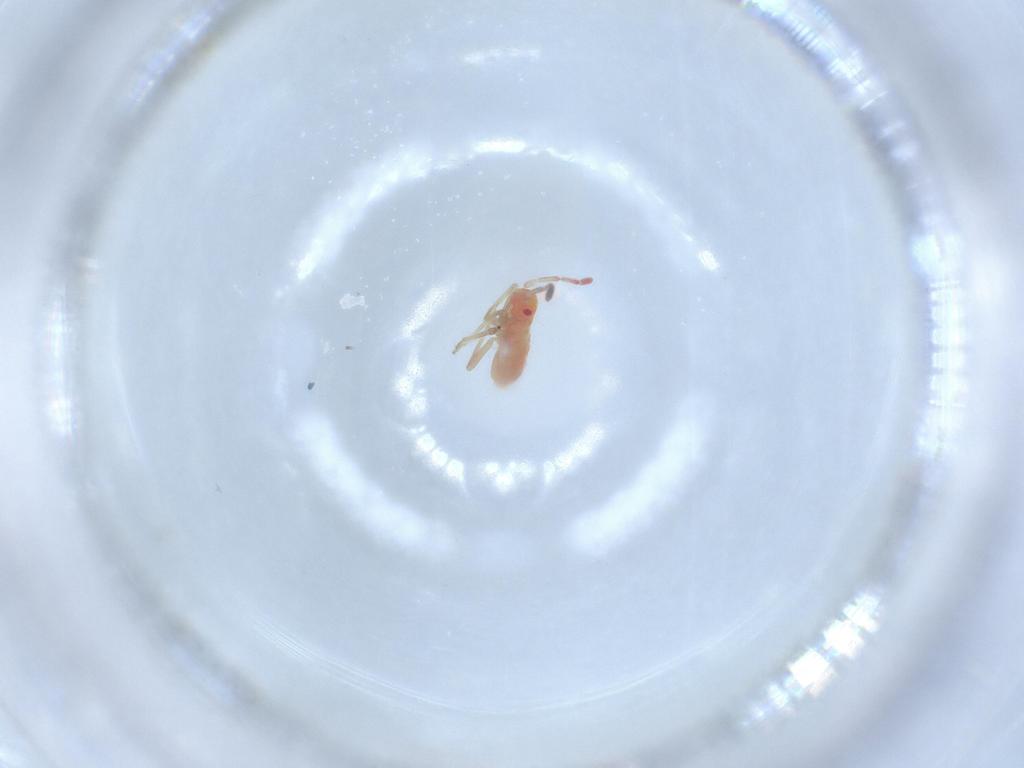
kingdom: Animalia
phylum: Arthropoda
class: Insecta
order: Hemiptera
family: Miridae
